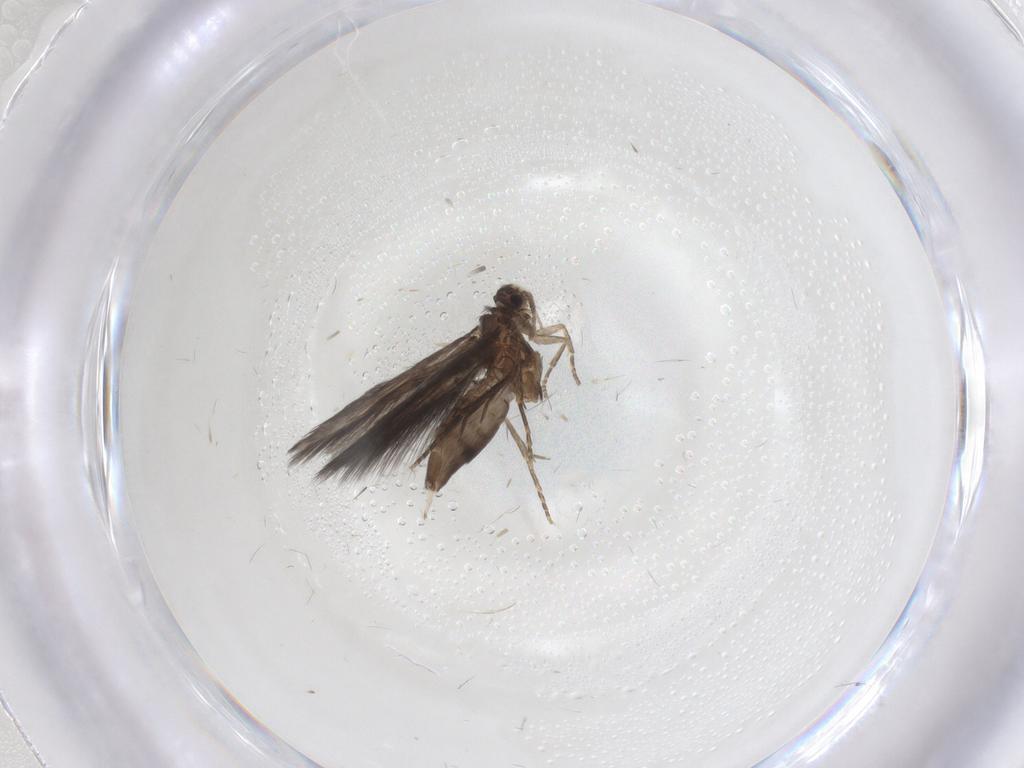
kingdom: Animalia
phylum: Arthropoda
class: Insecta
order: Trichoptera
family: Hydroptilidae
